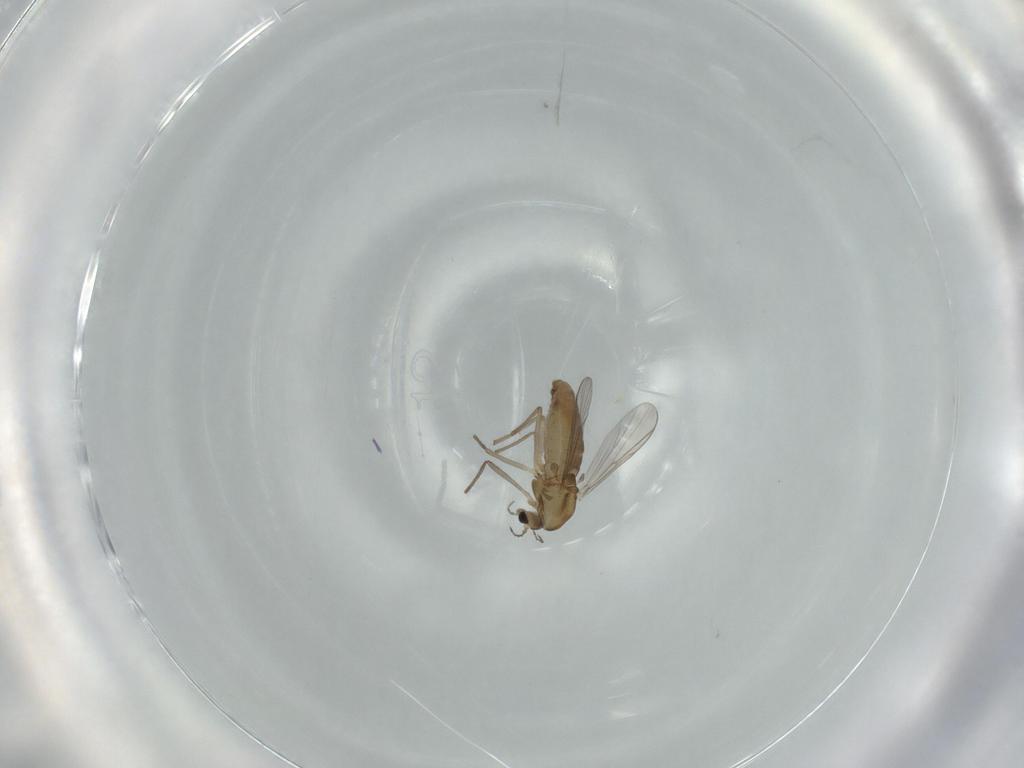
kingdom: Animalia
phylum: Arthropoda
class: Insecta
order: Diptera
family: Chironomidae
